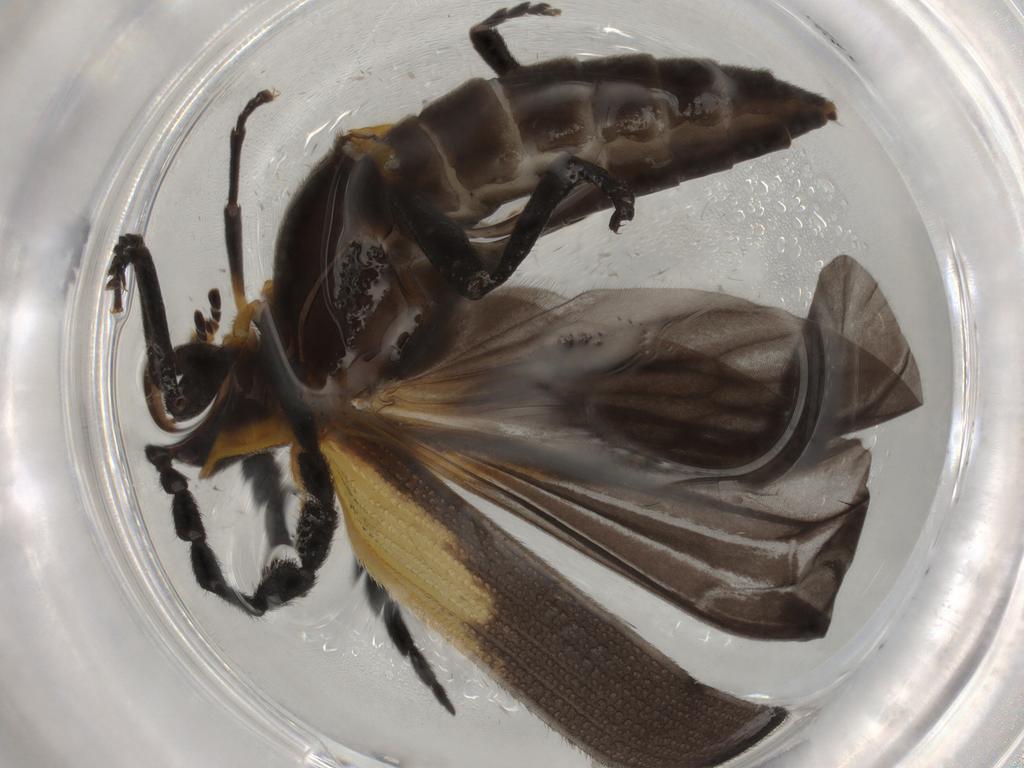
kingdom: Animalia
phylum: Arthropoda
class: Insecta
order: Coleoptera
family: Lycidae
